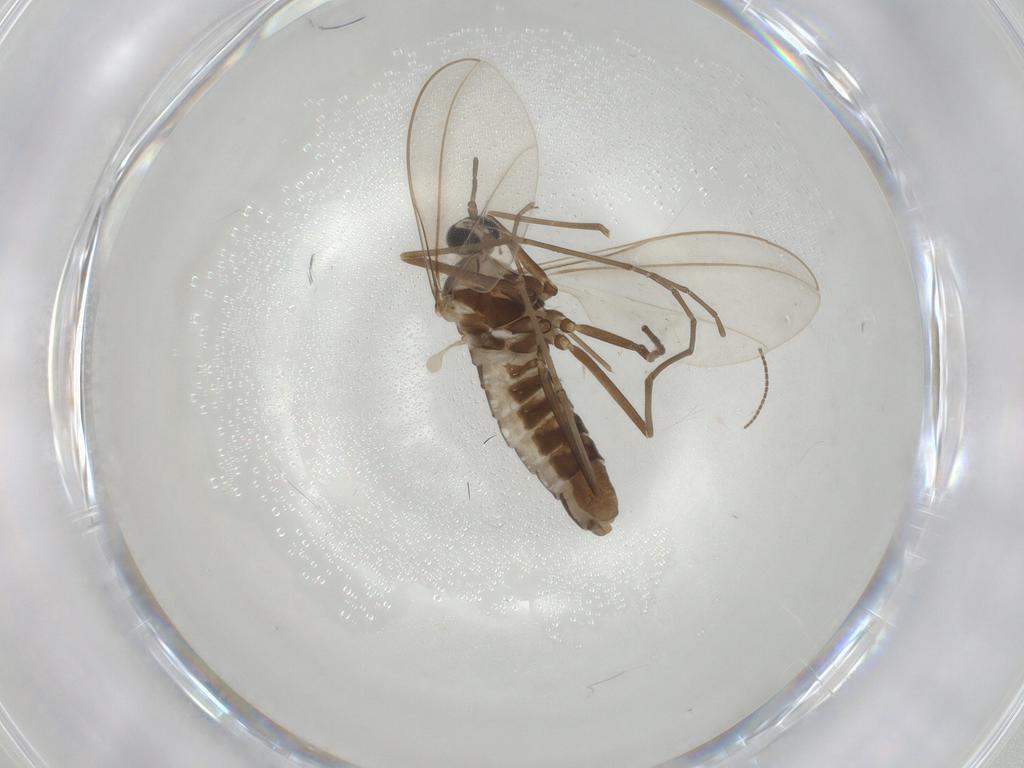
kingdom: Animalia
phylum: Arthropoda
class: Insecta
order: Diptera
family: Cecidomyiidae
